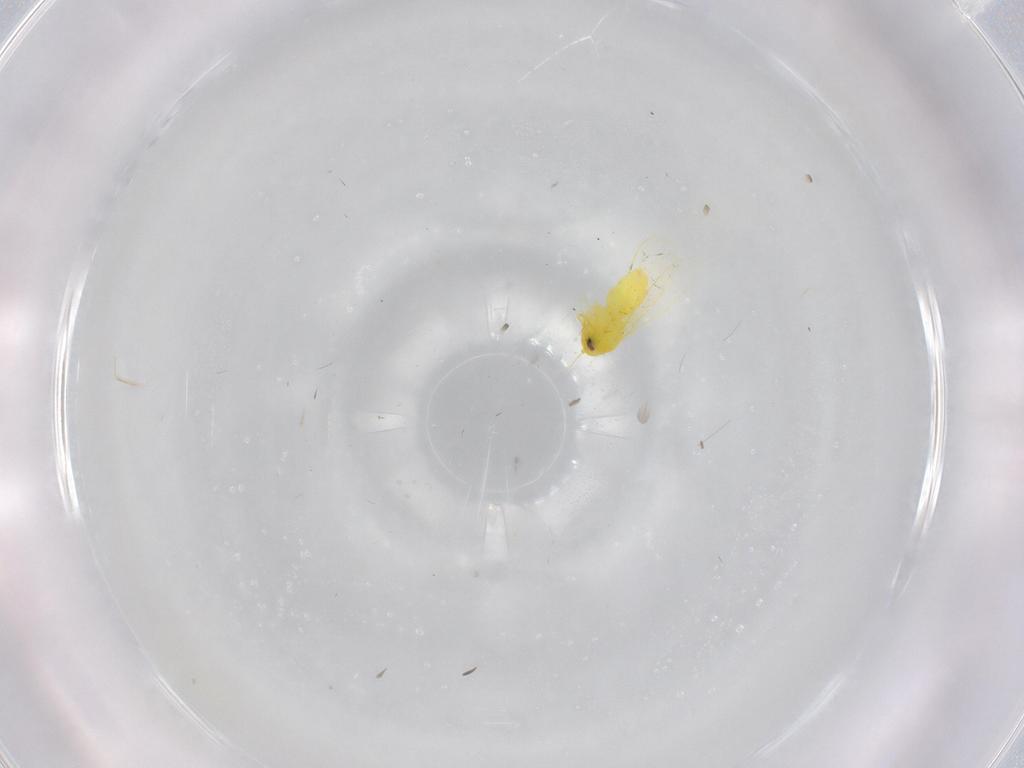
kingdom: Animalia
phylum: Arthropoda
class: Insecta
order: Hemiptera
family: Aleyrodidae
